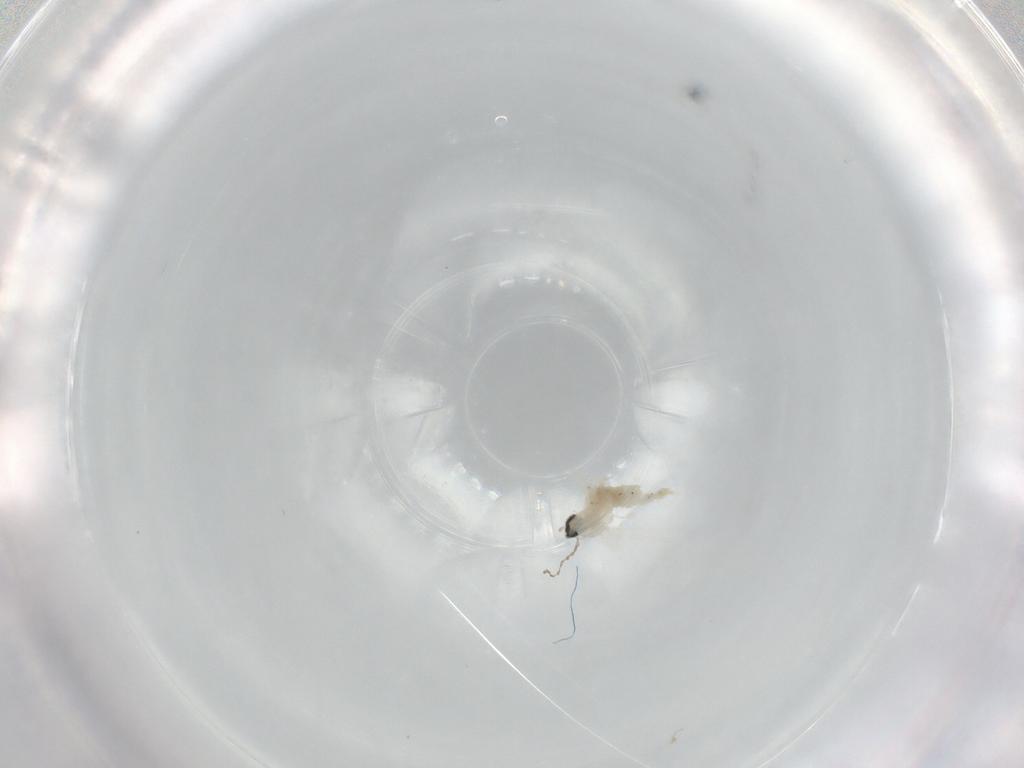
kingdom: Animalia
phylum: Arthropoda
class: Insecta
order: Diptera
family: Cecidomyiidae
